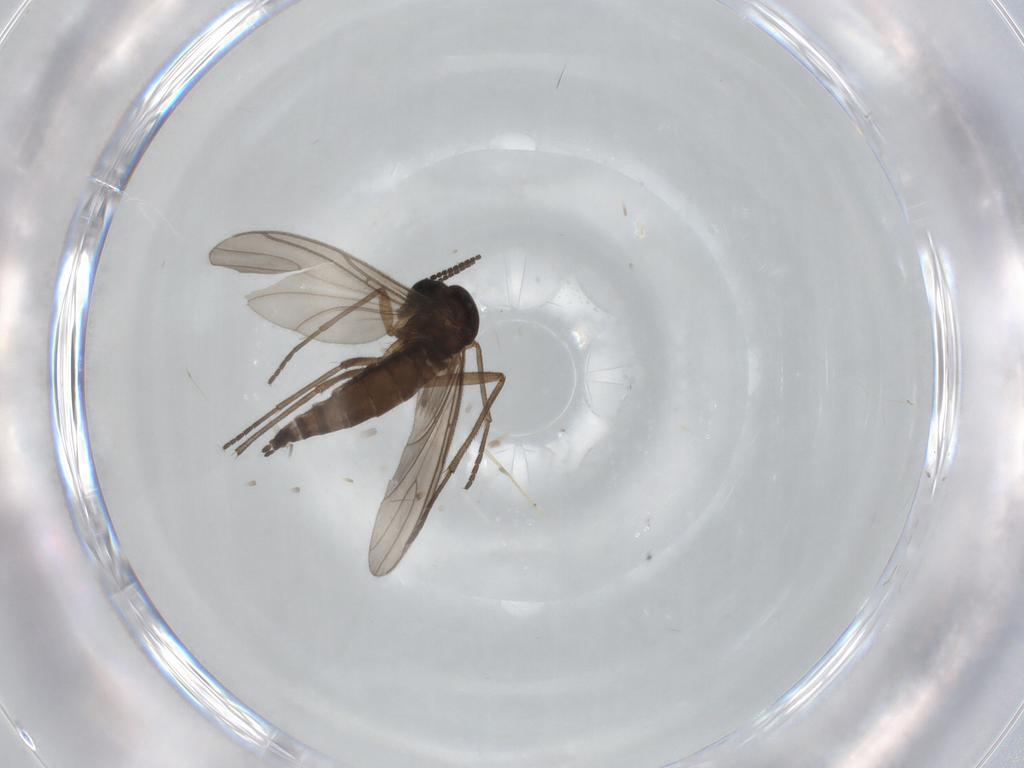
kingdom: Animalia
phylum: Arthropoda
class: Insecta
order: Diptera
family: Sciaridae
